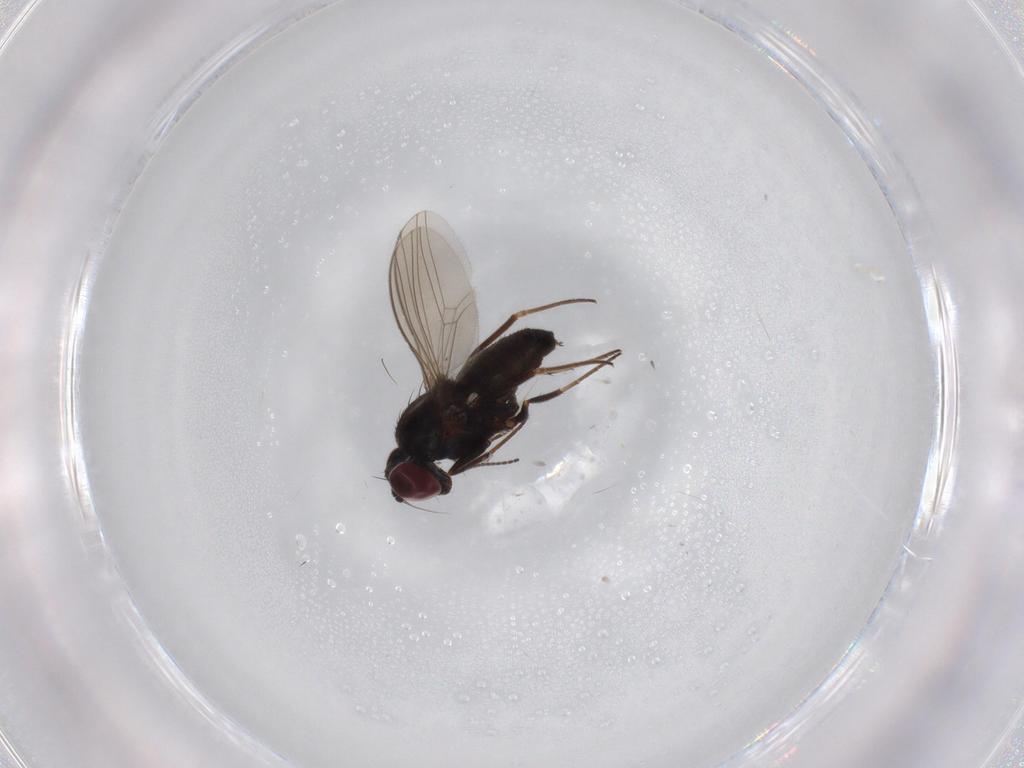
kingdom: Animalia
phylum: Arthropoda
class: Insecta
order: Diptera
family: Dolichopodidae
